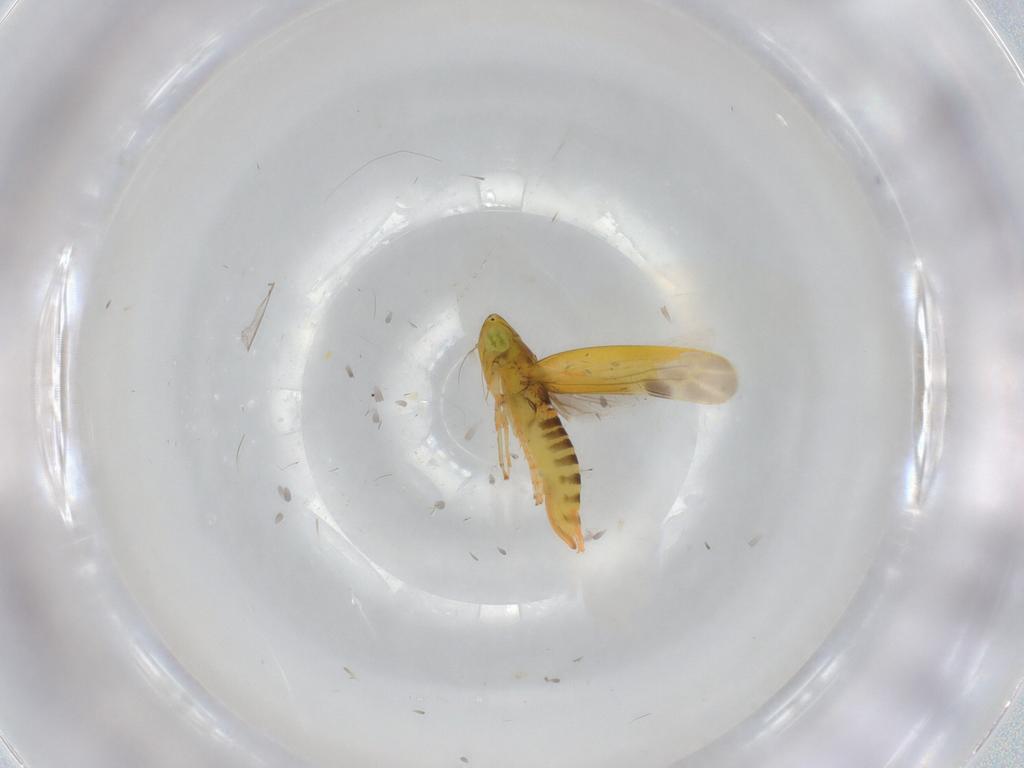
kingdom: Animalia
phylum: Arthropoda
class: Insecta
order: Hemiptera
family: Cicadellidae
